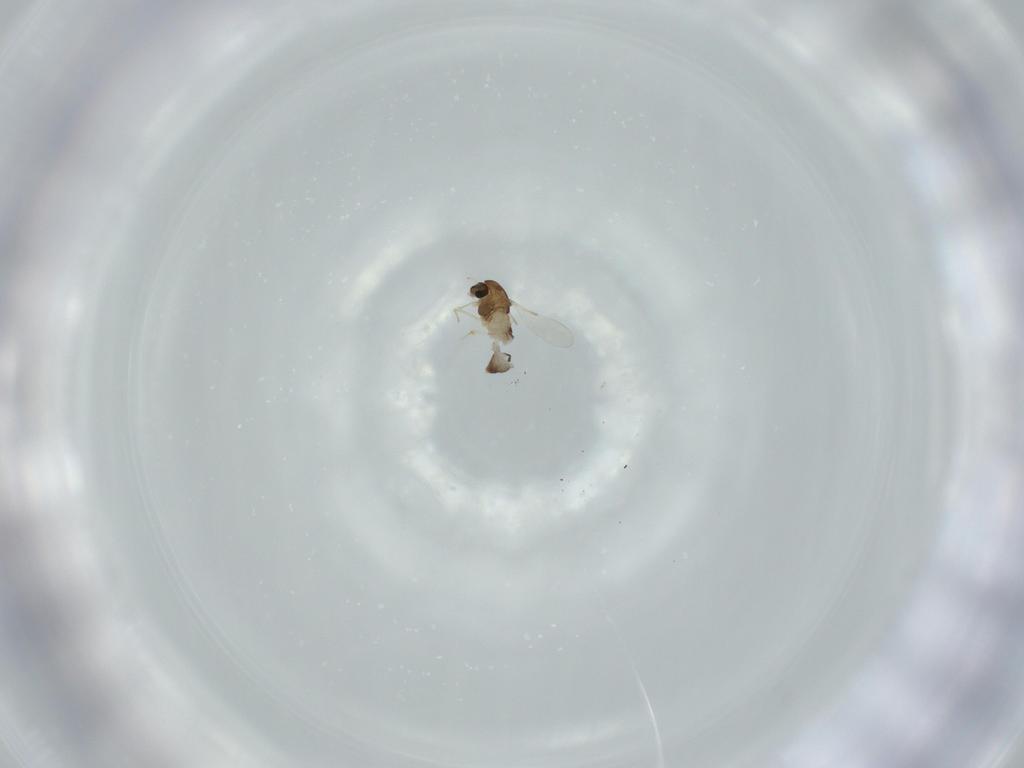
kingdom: Animalia
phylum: Arthropoda
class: Insecta
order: Diptera
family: Chironomidae
